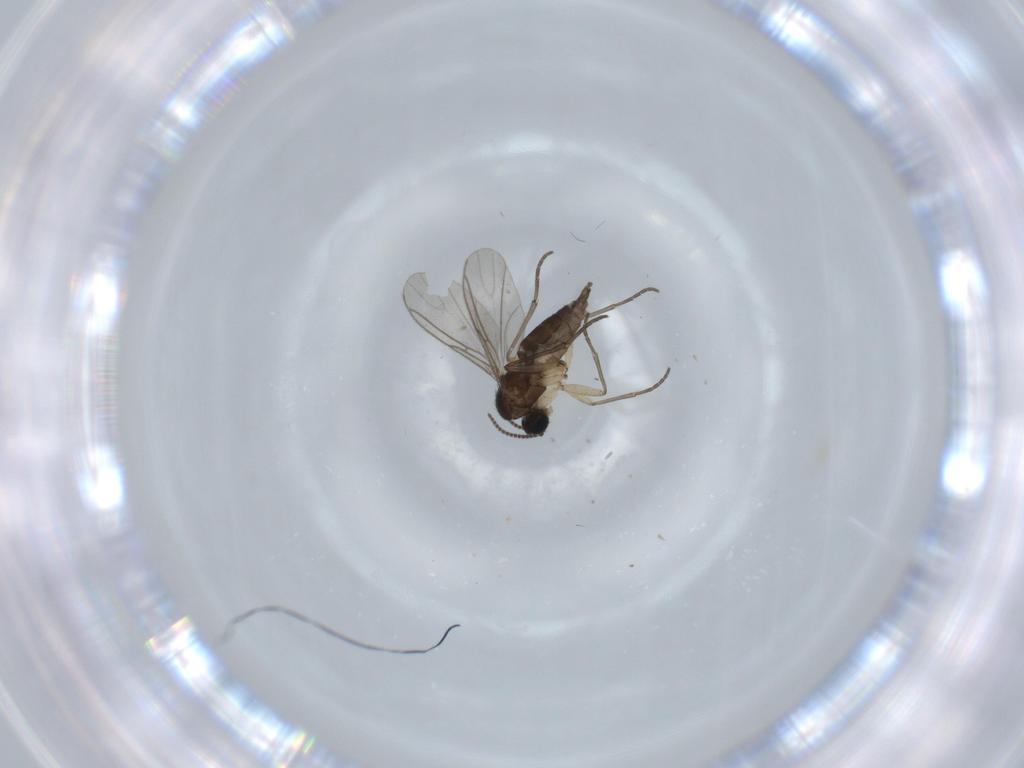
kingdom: Animalia
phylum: Arthropoda
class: Insecta
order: Diptera
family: Sciaridae
